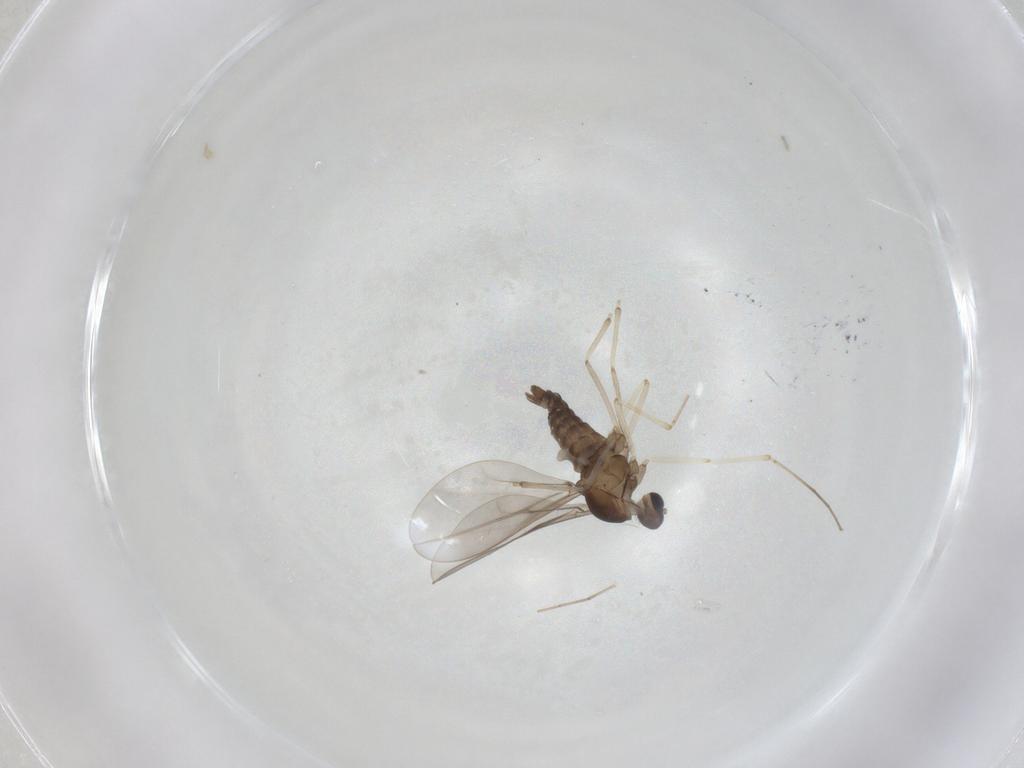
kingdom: Animalia
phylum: Arthropoda
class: Insecta
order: Diptera
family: Cecidomyiidae
